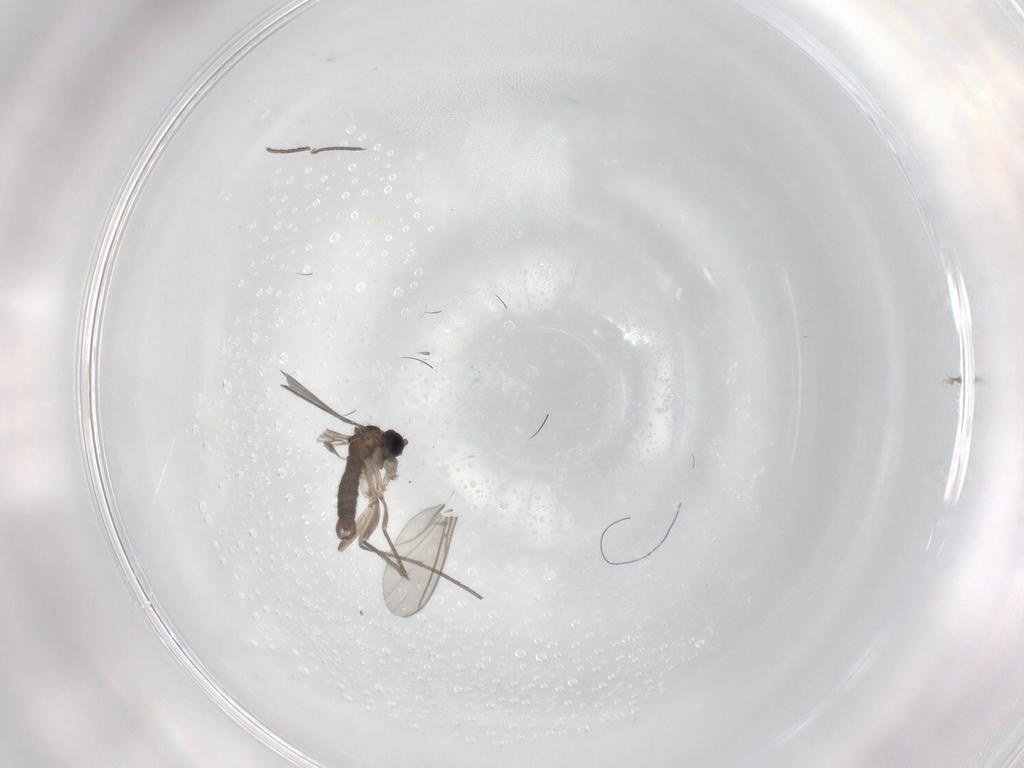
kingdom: Animalia
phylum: Arthropoda
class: Insecta
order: Diptera
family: Sciaridae
